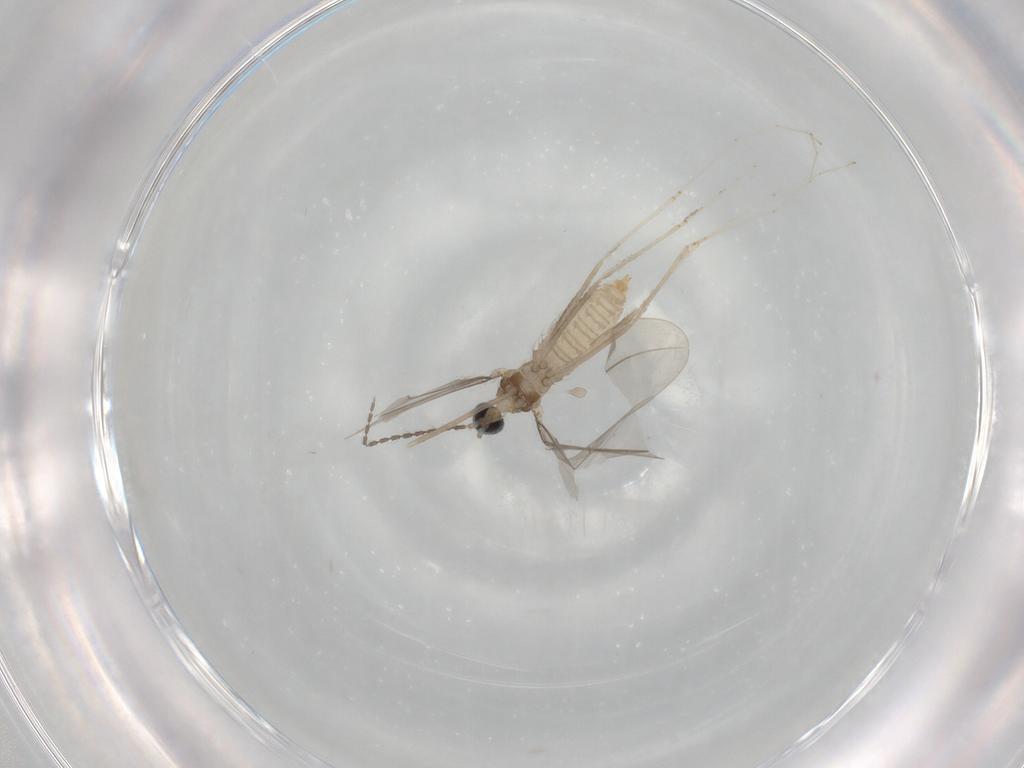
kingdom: Animalia
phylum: Arthropoda
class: Insecta
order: Diptera
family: Cecidomyiidae
